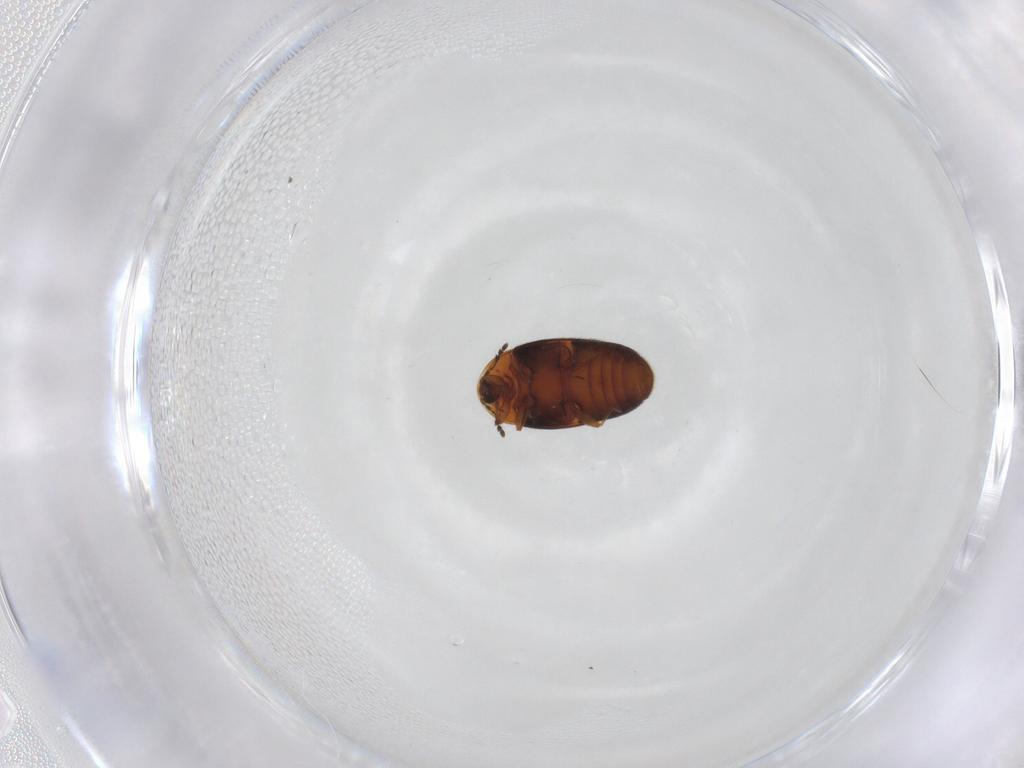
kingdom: Animalia
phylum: Arthropoda
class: Insecta
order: Coleoptera
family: Corylophidae
